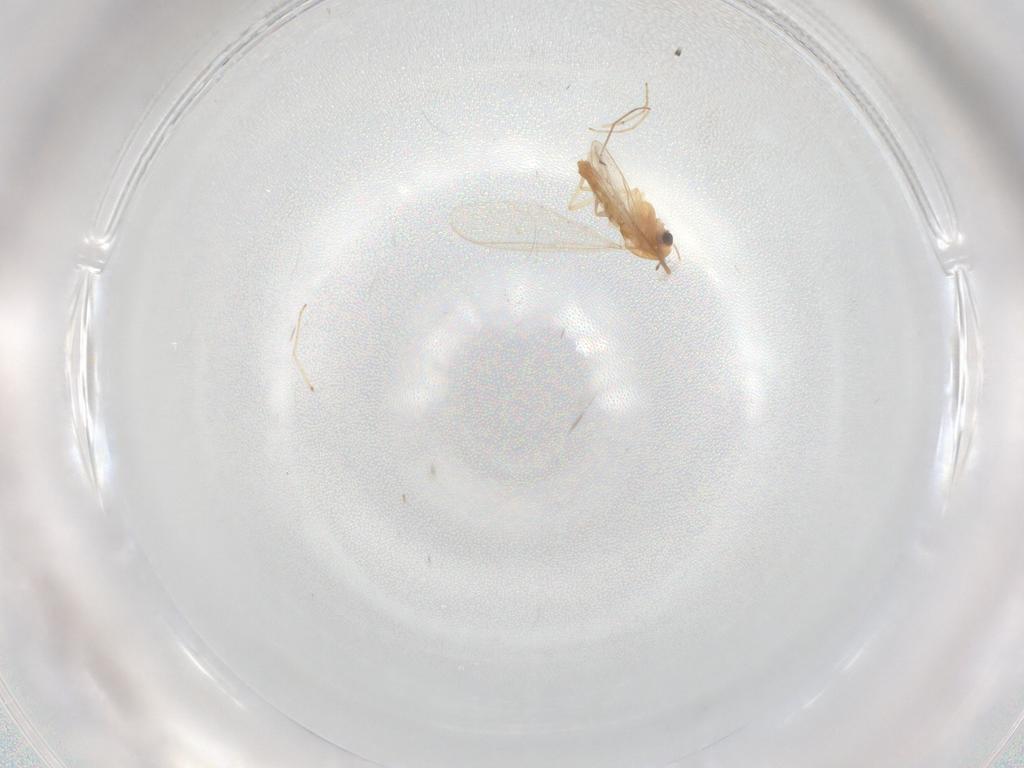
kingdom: Animalia
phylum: Arthropoda
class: Insecta
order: Diptera
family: Chironomidae
